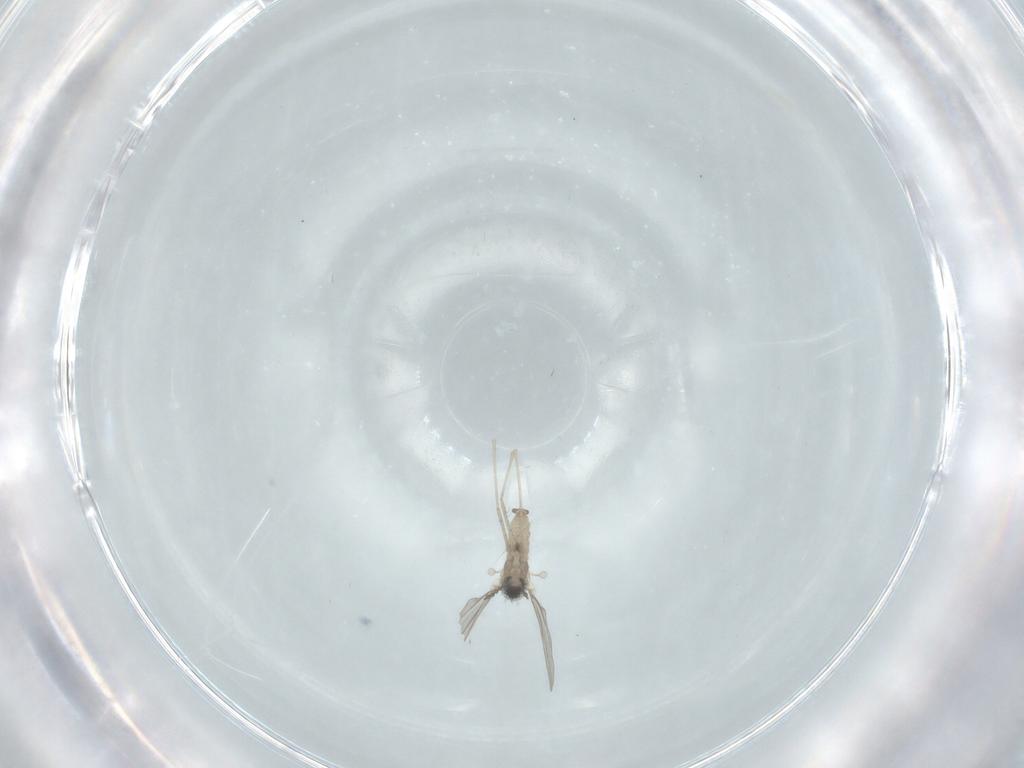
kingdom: Animalia
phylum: Arthropoda
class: Insecta
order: Diptera
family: Cecidomyiidae
